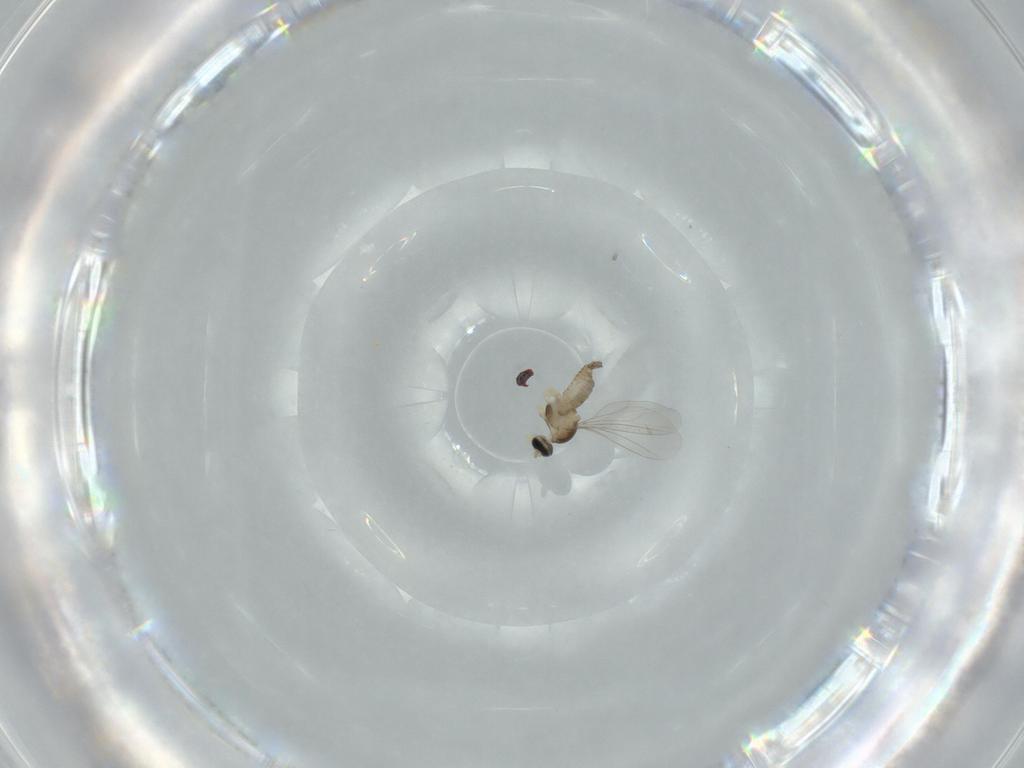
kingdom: Animalia
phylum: Arthropoda
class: Insecta
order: Diptera
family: Cecidomyiidae
